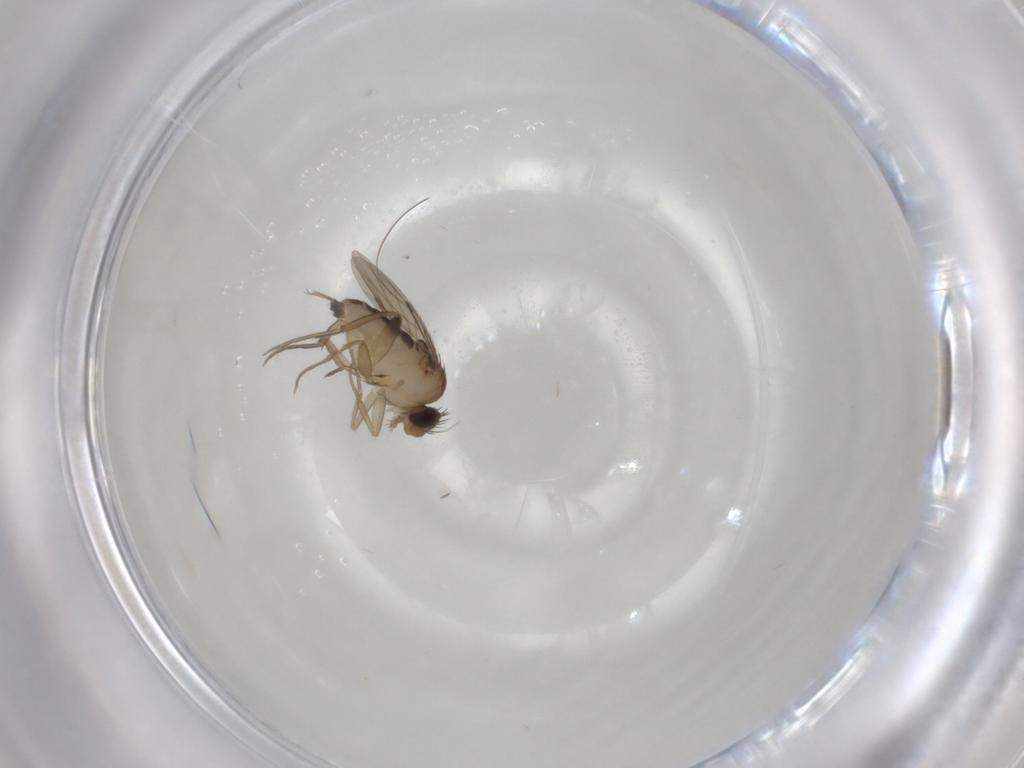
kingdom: Animalia
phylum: Arthropoda
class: Insecta
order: Diptera
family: Phoridae
